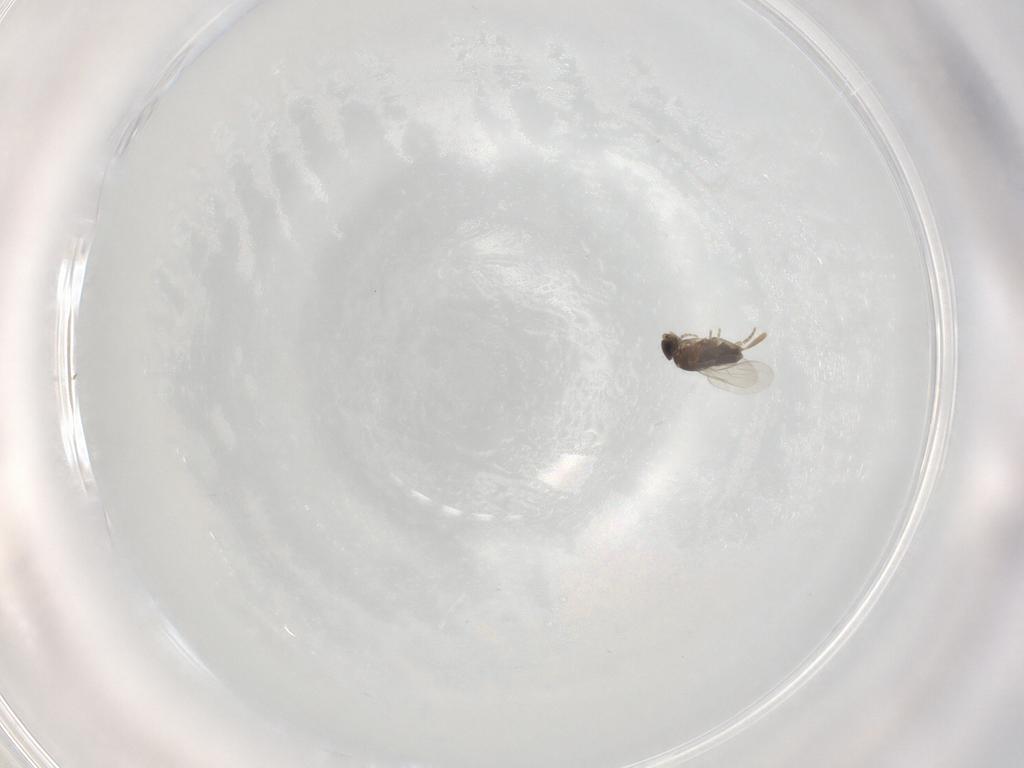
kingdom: Animalia
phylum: Arthropoda
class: Insecta
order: Diptera
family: Phoridae
